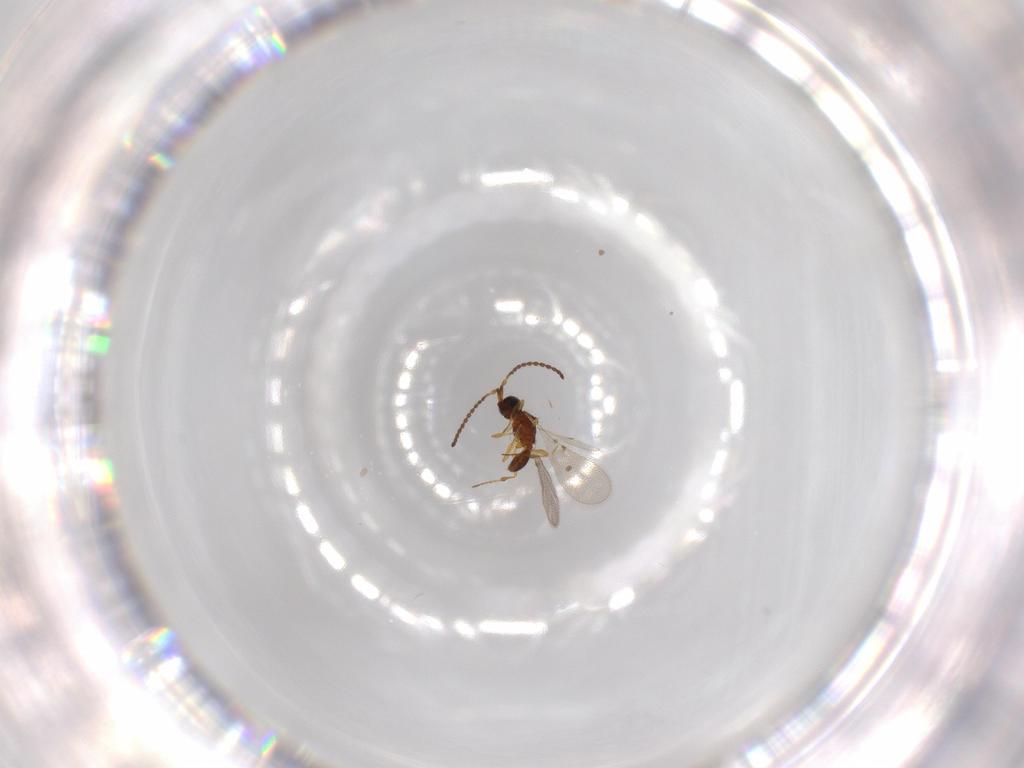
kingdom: Animalia
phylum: Arthropoda
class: Insecta
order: Hymenoptera
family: Diapriidae
